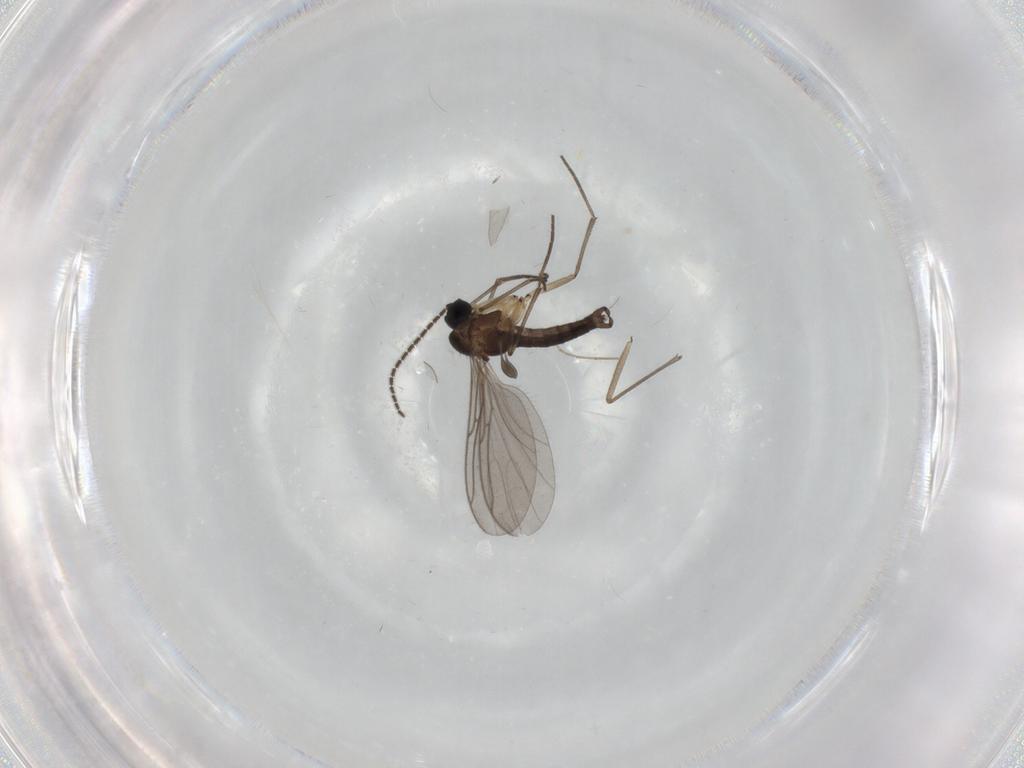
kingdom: Animalia
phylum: Arthropoda
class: Insecta
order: Diptera
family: Sciaridae
